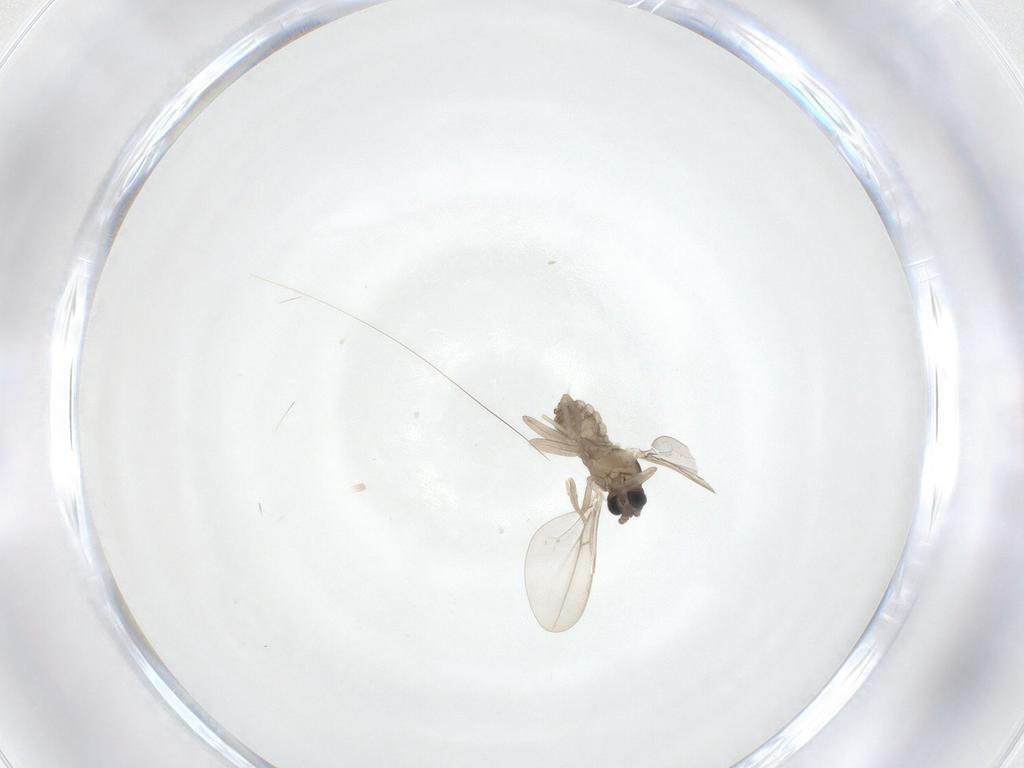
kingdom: Animalia
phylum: Arthropoda
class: Insecta
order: Diptera
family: Cecidomyiidae
